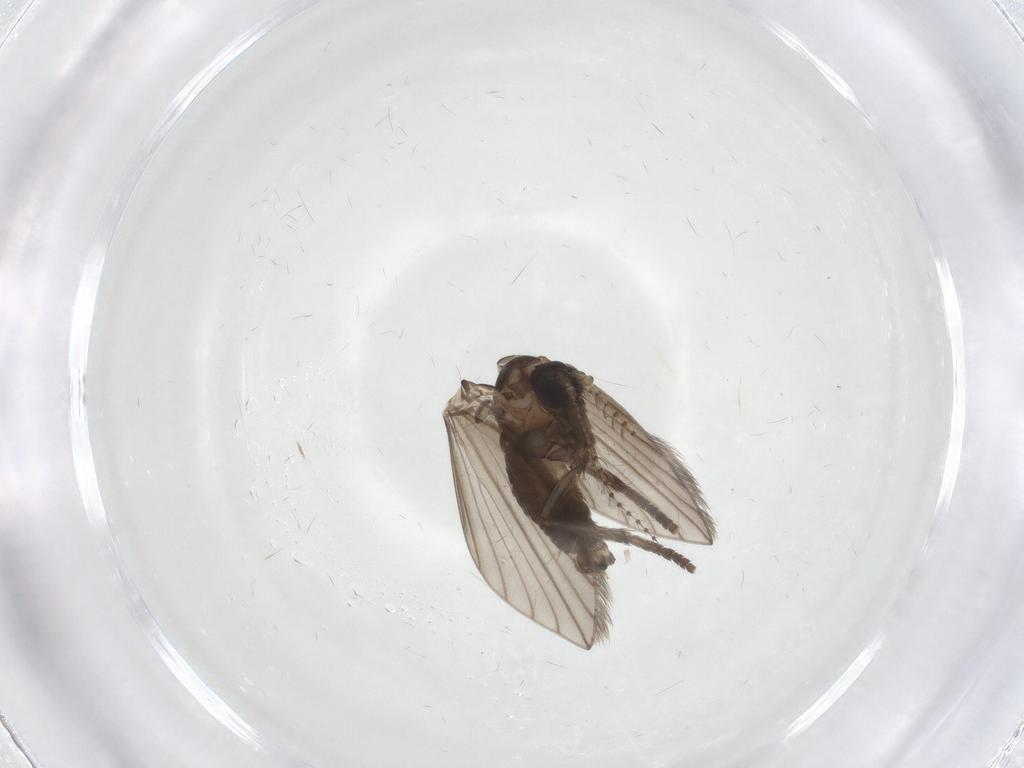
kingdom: Animalia
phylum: Arthropoda
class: Insecta
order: Diptera
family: Psychodidae
